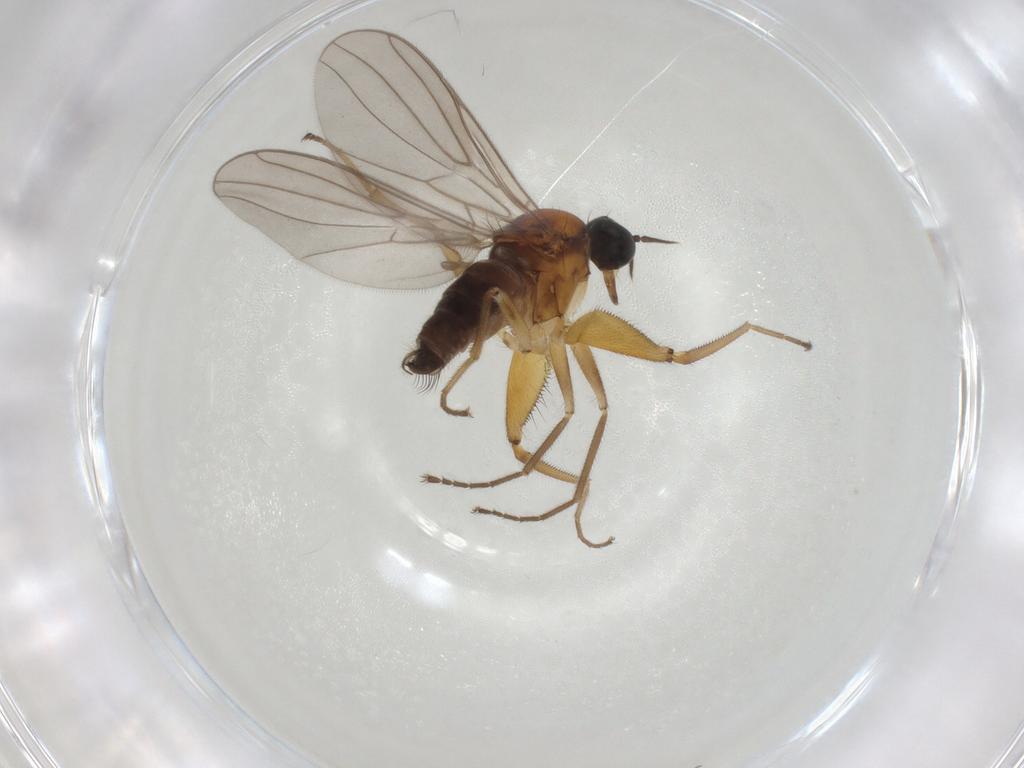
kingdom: Animalia
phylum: Arthropoda
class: Insecta
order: Diptera
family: Hybotidae
